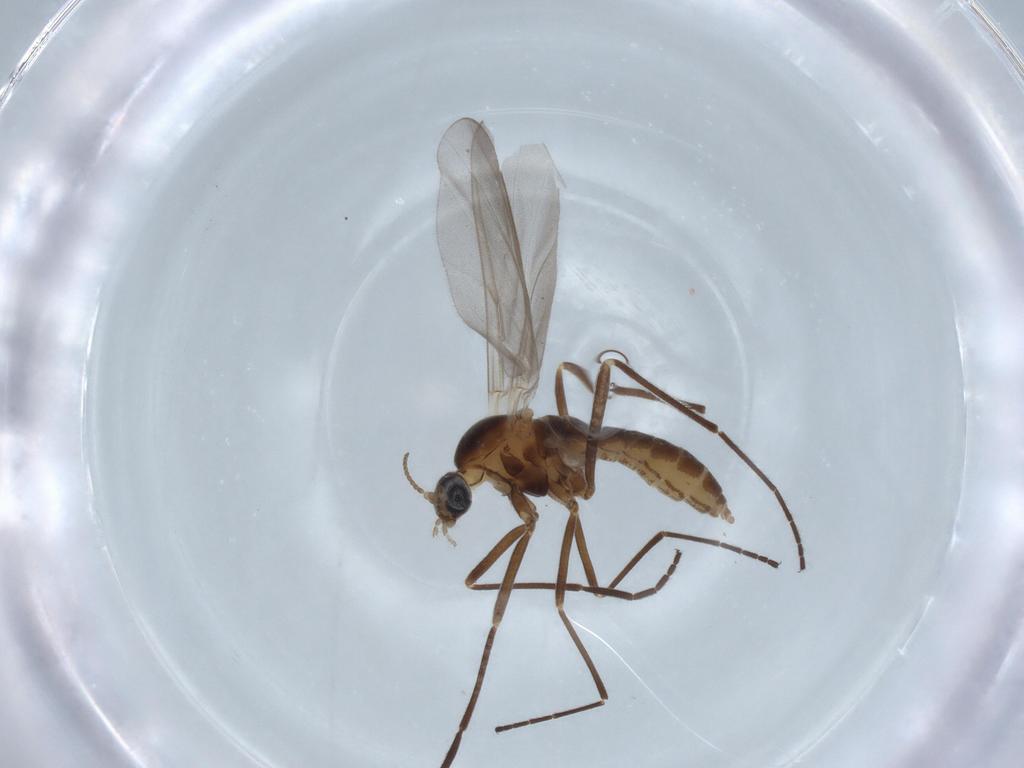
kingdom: Animalia
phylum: Arthropoda
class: Insecta
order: Diptera
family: Cecidomyiidae
